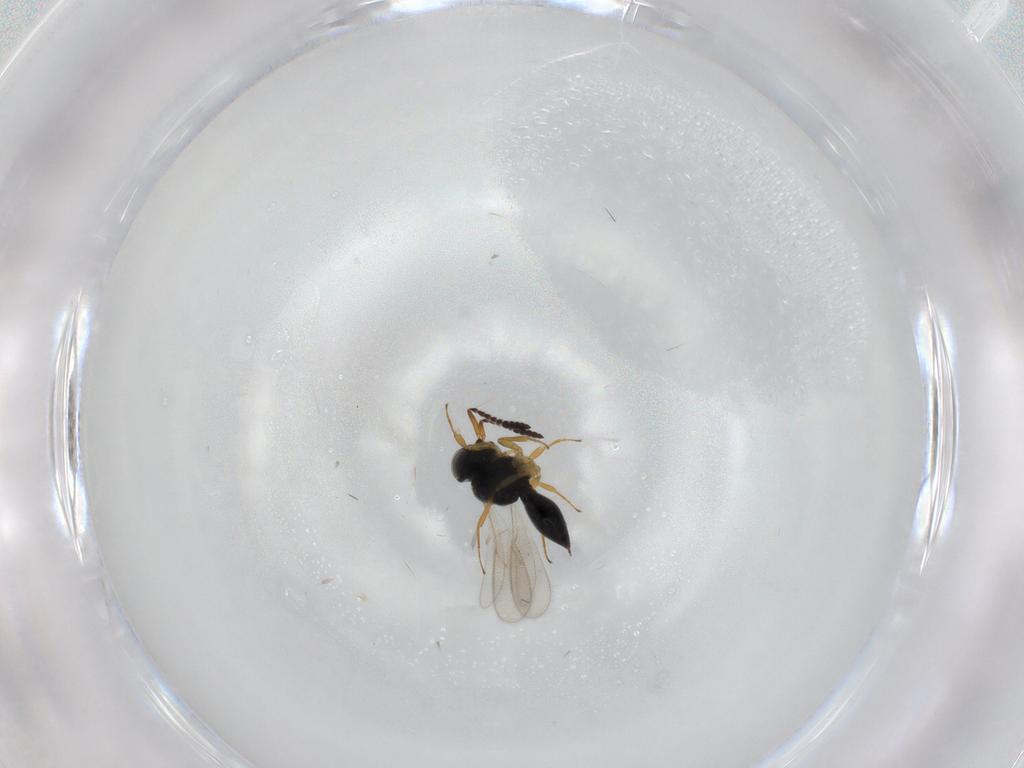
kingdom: Animalia
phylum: Arthropoda
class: Insecta
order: Hymenoptera
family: Scelionidae
